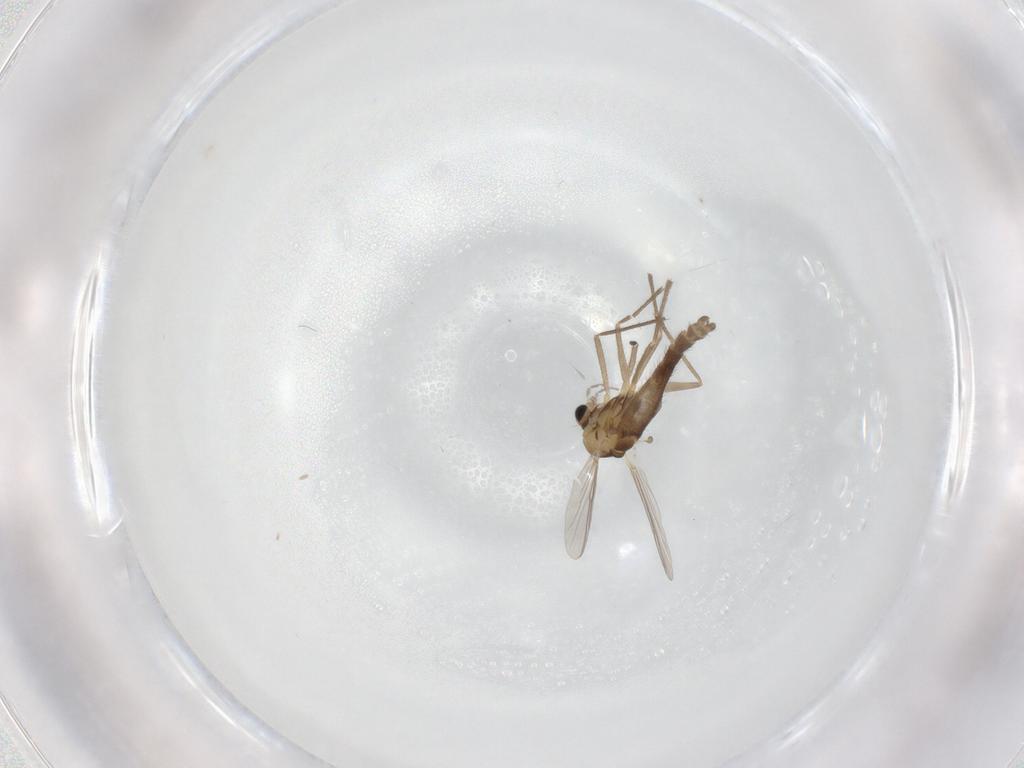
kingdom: Animalia
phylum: Arthropoda
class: Insecta
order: Diptera
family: Chironomidae
